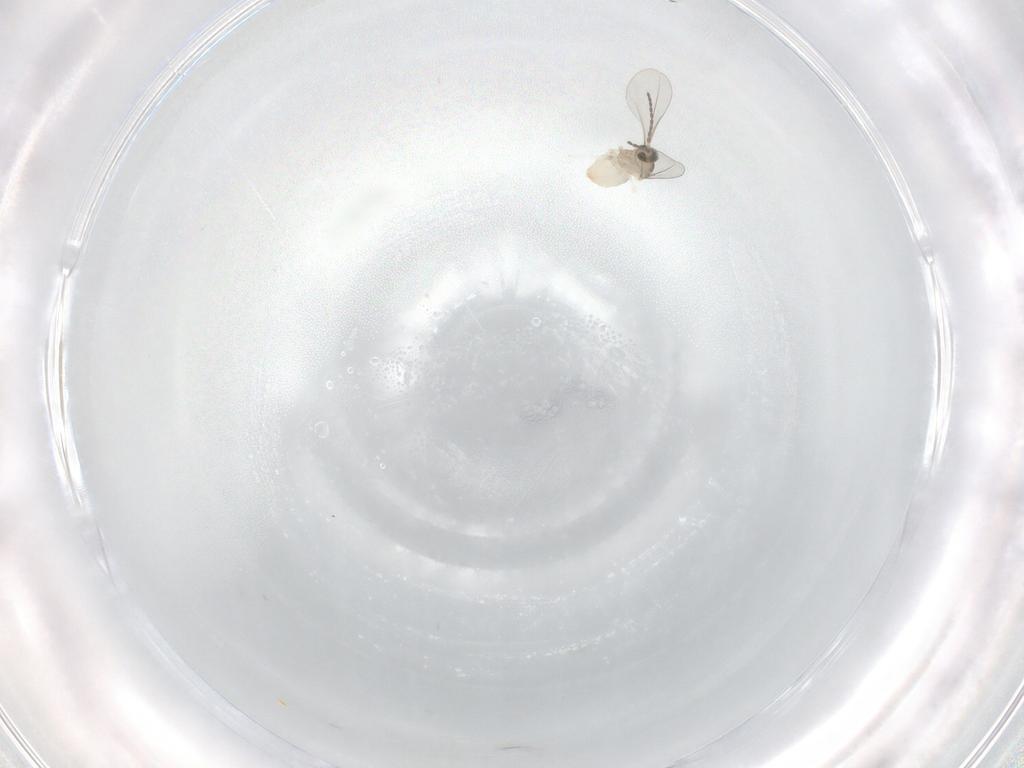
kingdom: Animalia
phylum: Arthropoda
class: Insecta
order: Diptera
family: Cecidomyiidae
